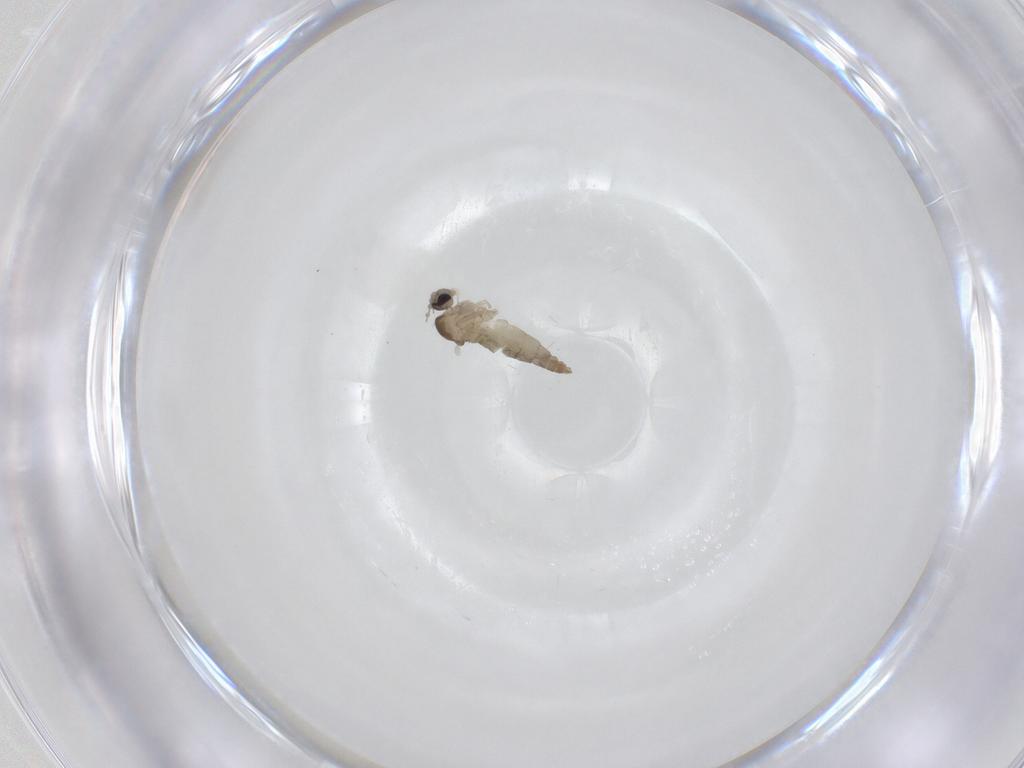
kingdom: Animalia
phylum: Arthropoda
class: Insecta
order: Diptera
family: Cecidomyiidae
